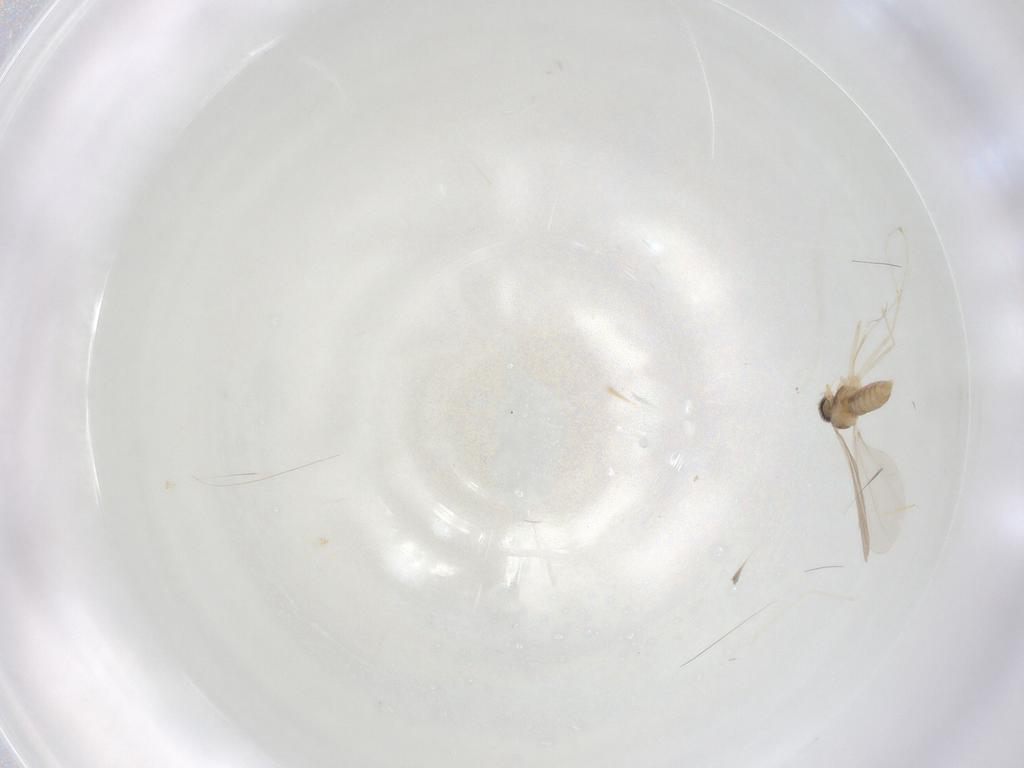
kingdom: Animalia
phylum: Arthropoda
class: Insecta
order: Diptera
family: Cecidomyiidae
